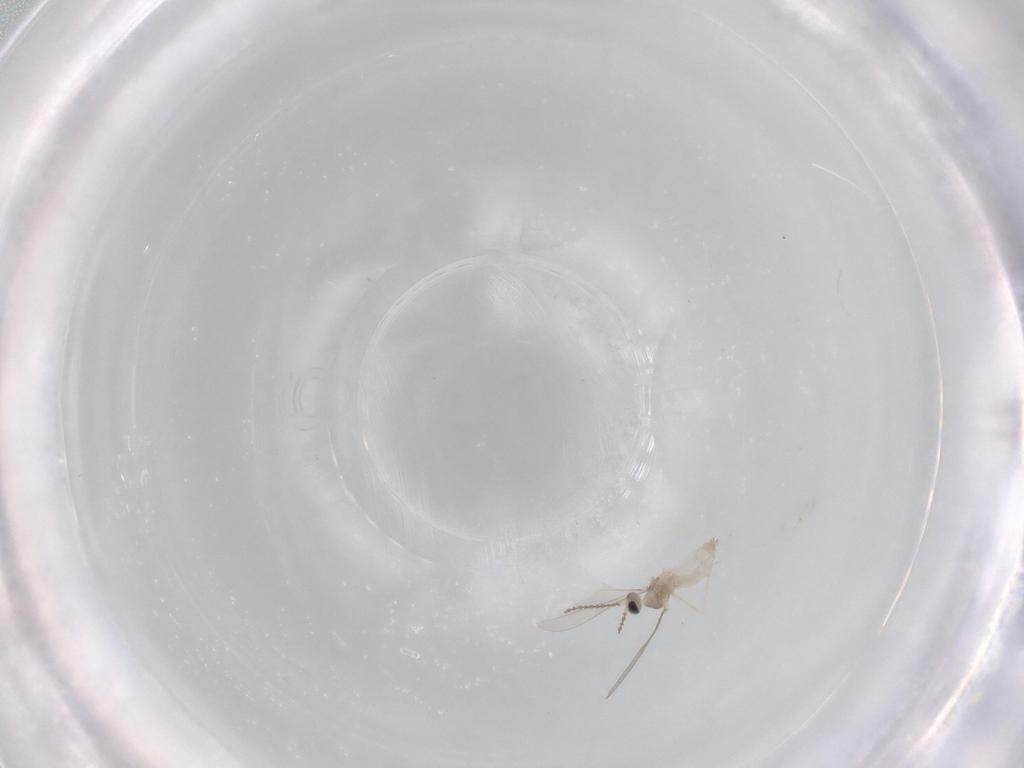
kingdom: Animalia
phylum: Arthropoda
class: Insecta
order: Diptera
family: Cecidomyiidae
